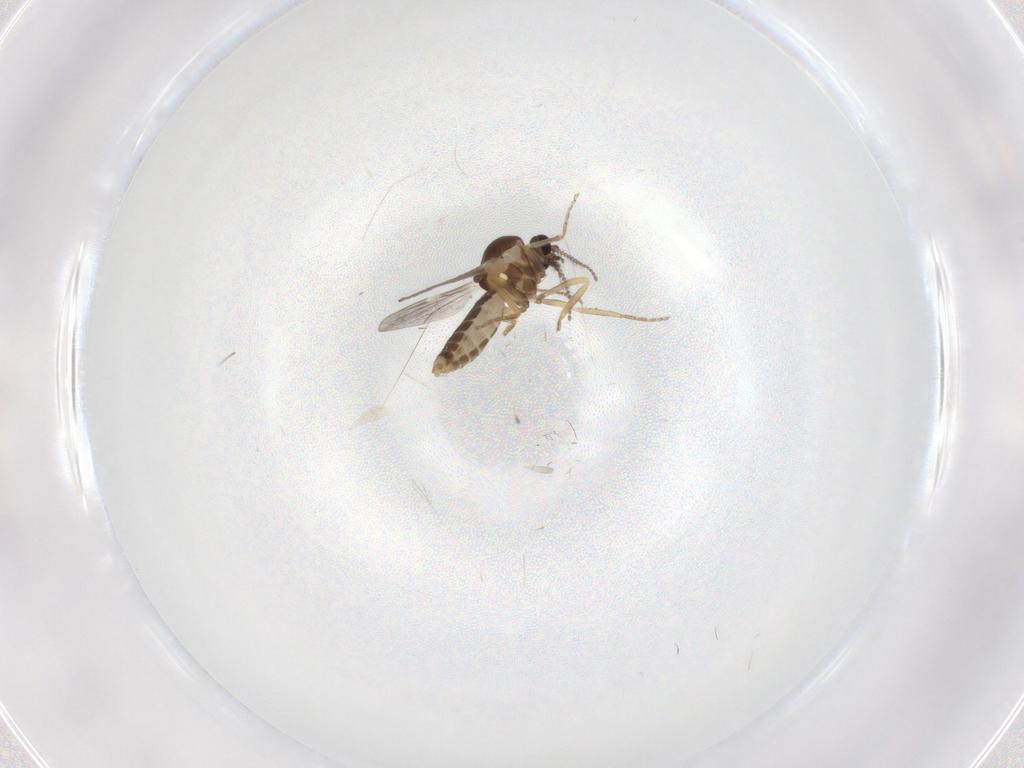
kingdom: Animalia
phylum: Arthropoda
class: Insecta
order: Diptera
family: Ceratopogonidae
